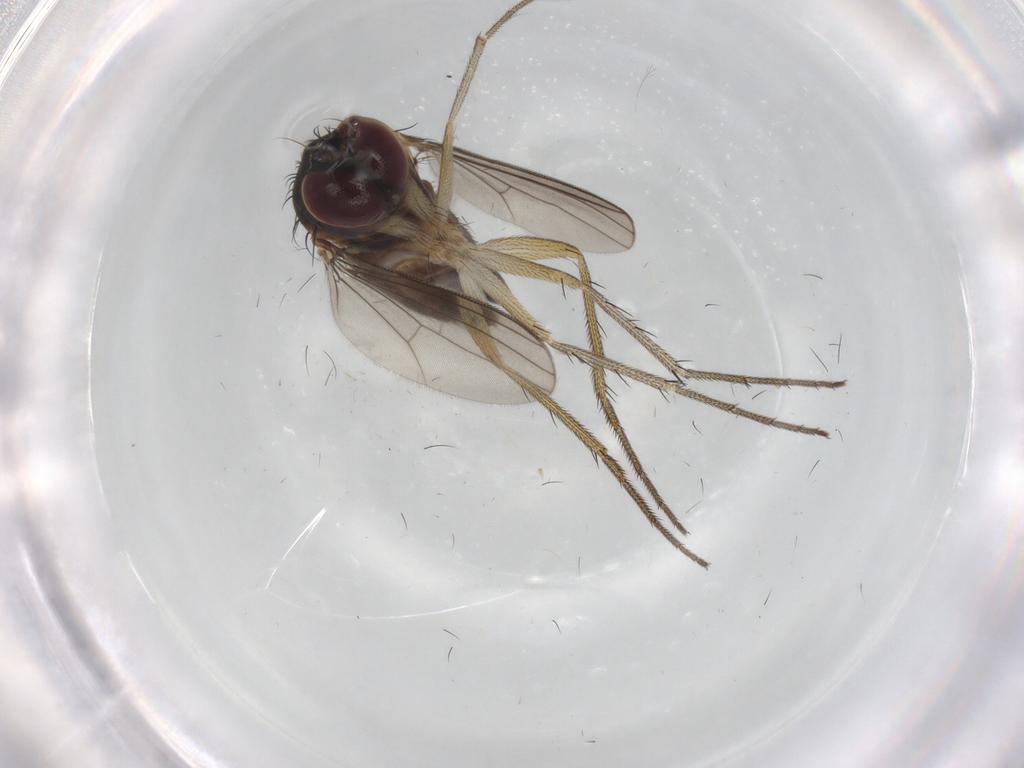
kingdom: Animalia
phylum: Arthropoda
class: Insecta
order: Diptera
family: Dolichopodidae
